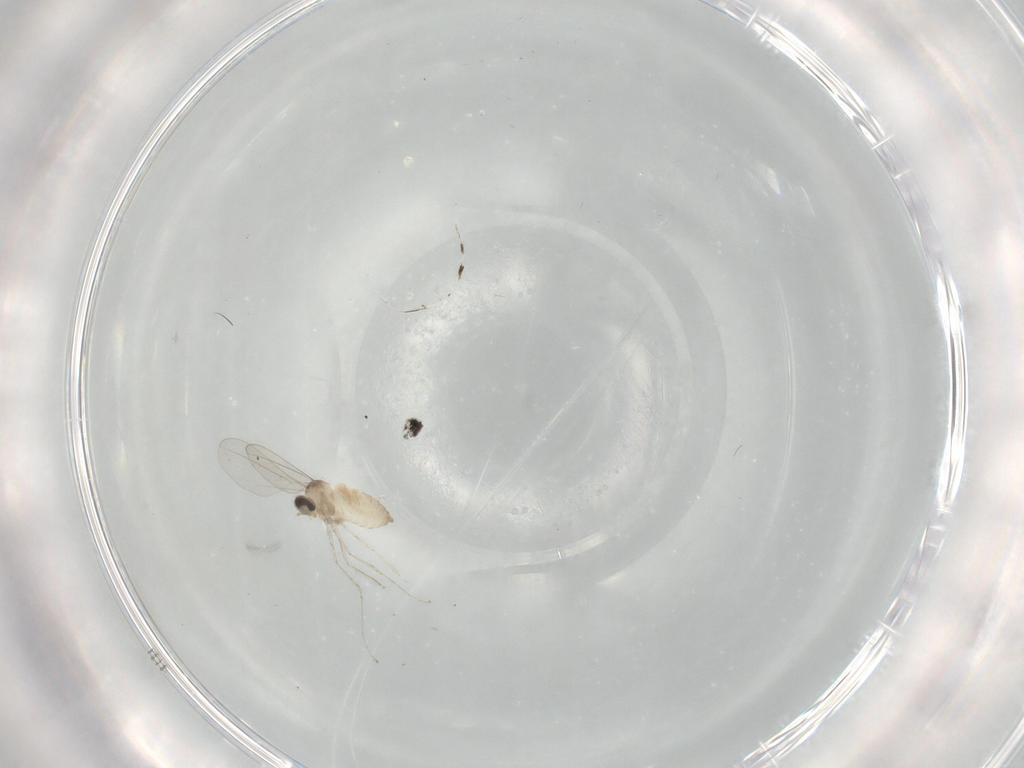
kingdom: Animalia
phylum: Arthropoda
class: Insecta
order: Diptera
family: Cecidomyiidae
